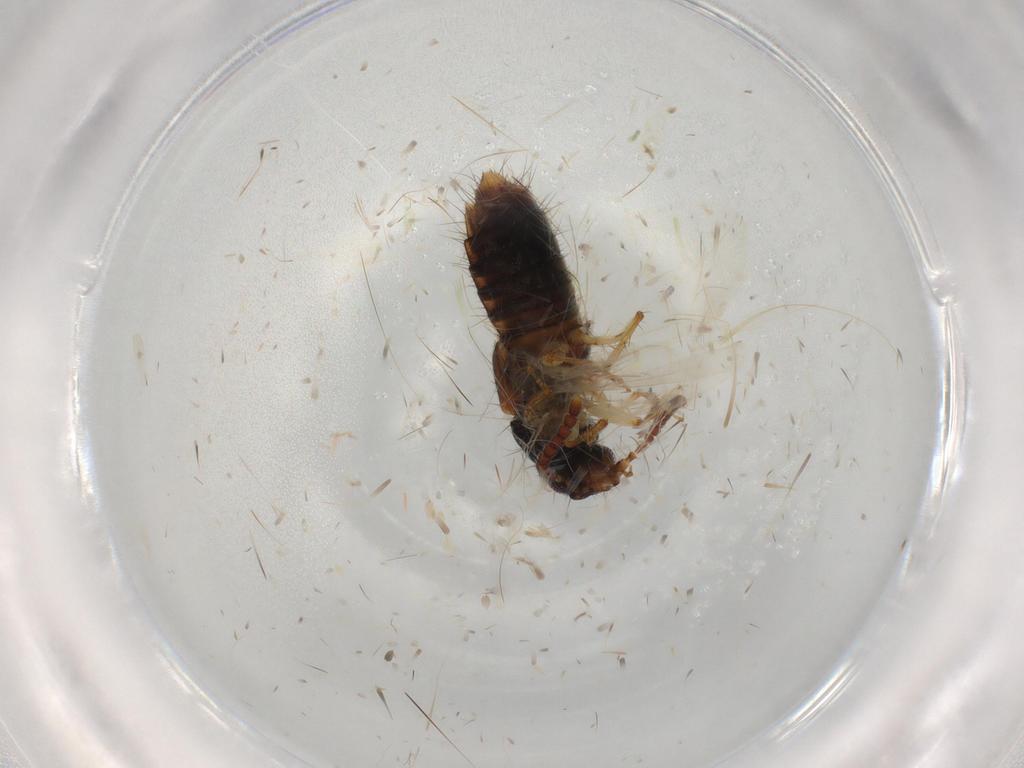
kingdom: Animalia
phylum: Arthropoda
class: Insecta
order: Coleoptera
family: Staphylinidae
